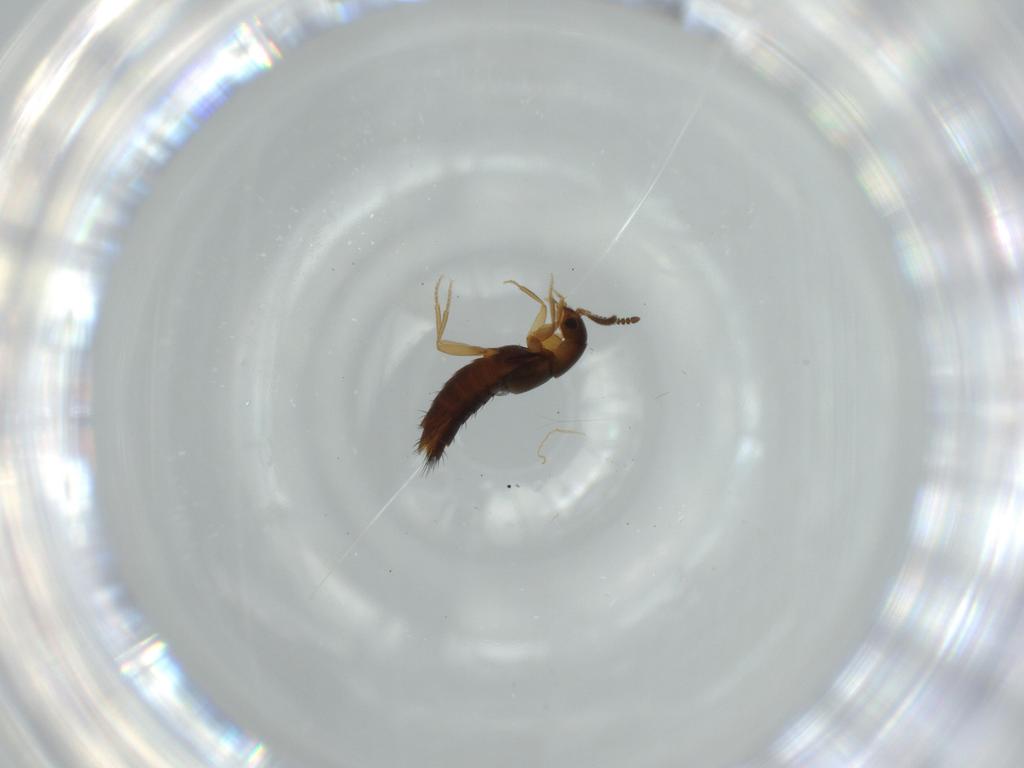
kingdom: Animalia
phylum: Arthropoda
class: Insecta
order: Coleoptera
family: Staphylinidae
